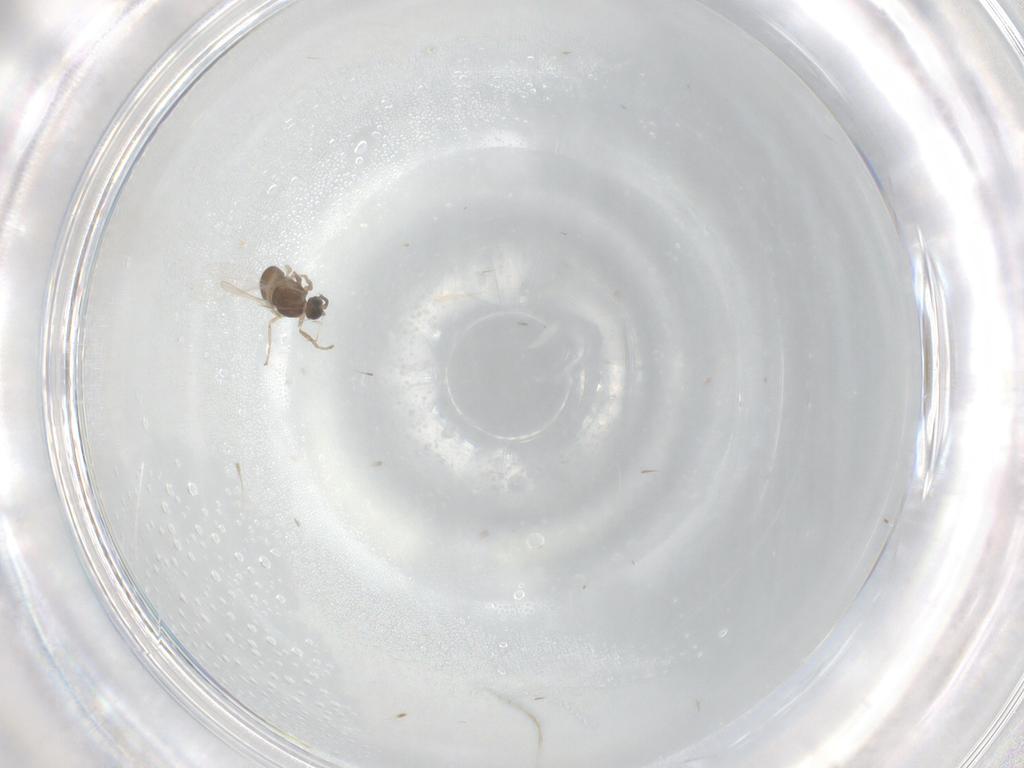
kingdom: Animalia
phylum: Arthropoda
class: Insecta
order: Diptera
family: Cecidomyiidae
